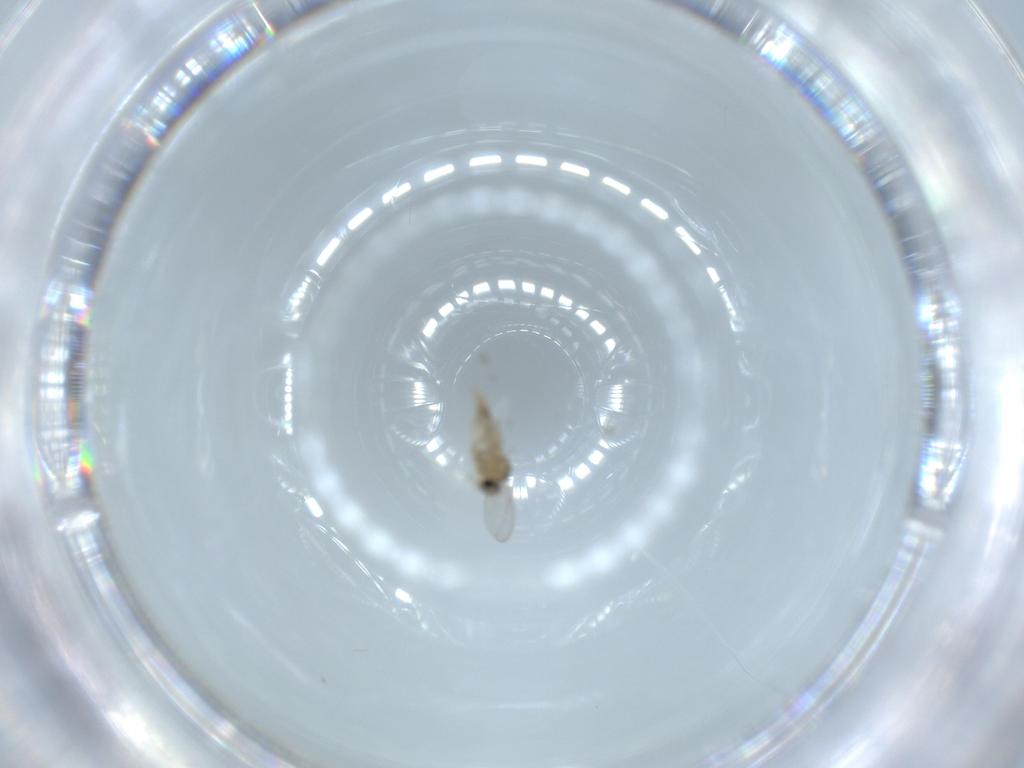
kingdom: Animalia
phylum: Arthropoda
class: Insecta
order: Diptera
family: Cecidomyiidae
